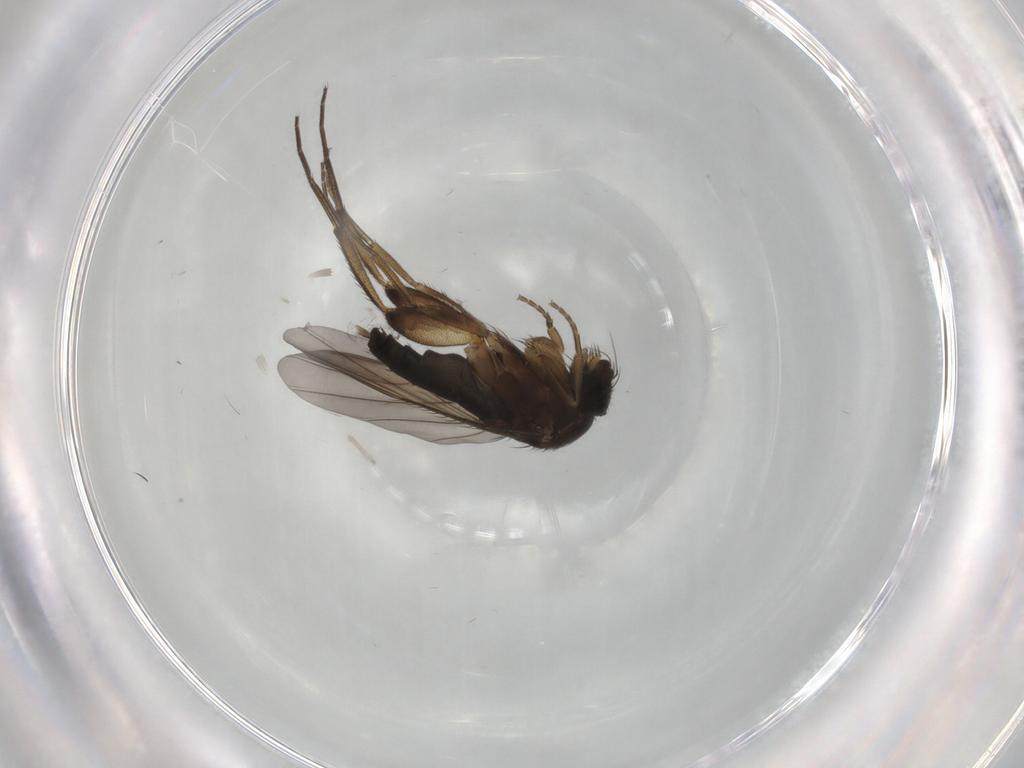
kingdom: Animalia
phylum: Arthropoda
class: Insecta
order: Diptera
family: Phoridae
